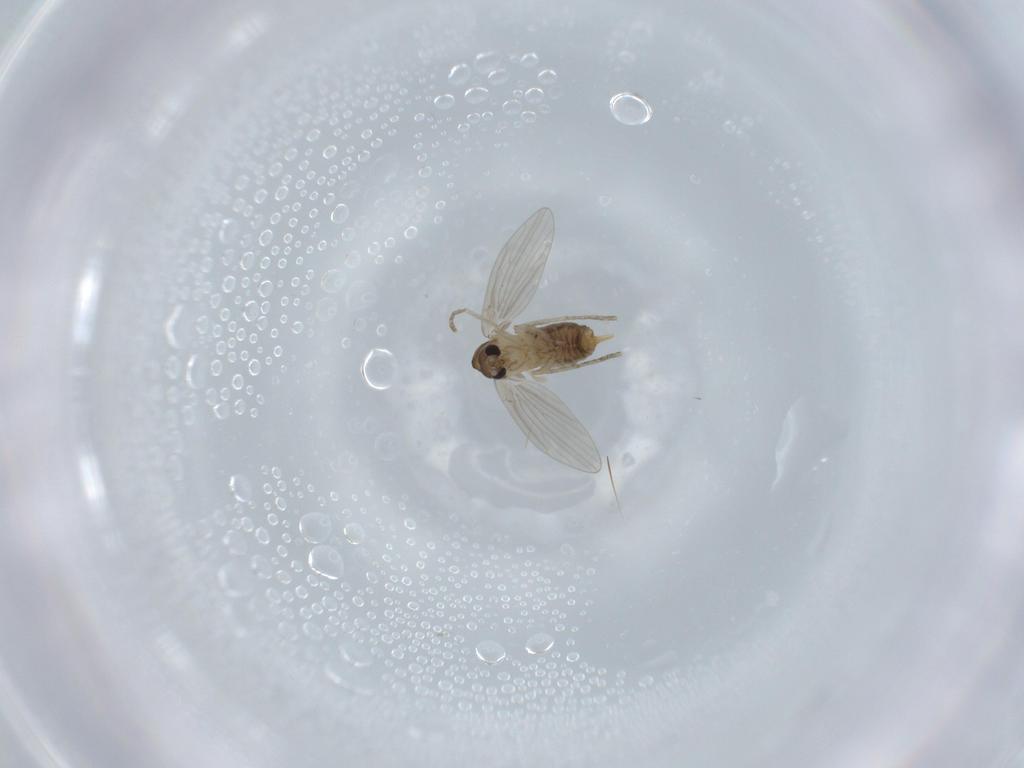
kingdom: Animalia
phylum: Arthropoda
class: Insecta
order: Diptera
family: Psychodidae
